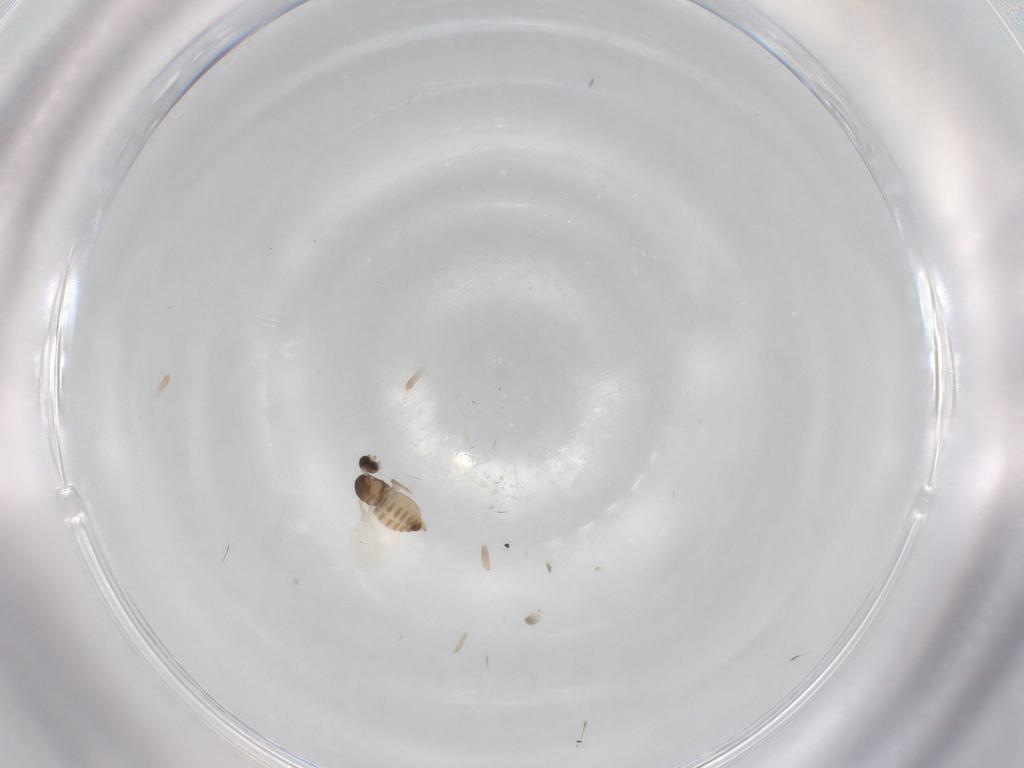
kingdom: Animalia
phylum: Arthropoda
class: Insecta
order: Diptera
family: Cecidomyiidae
